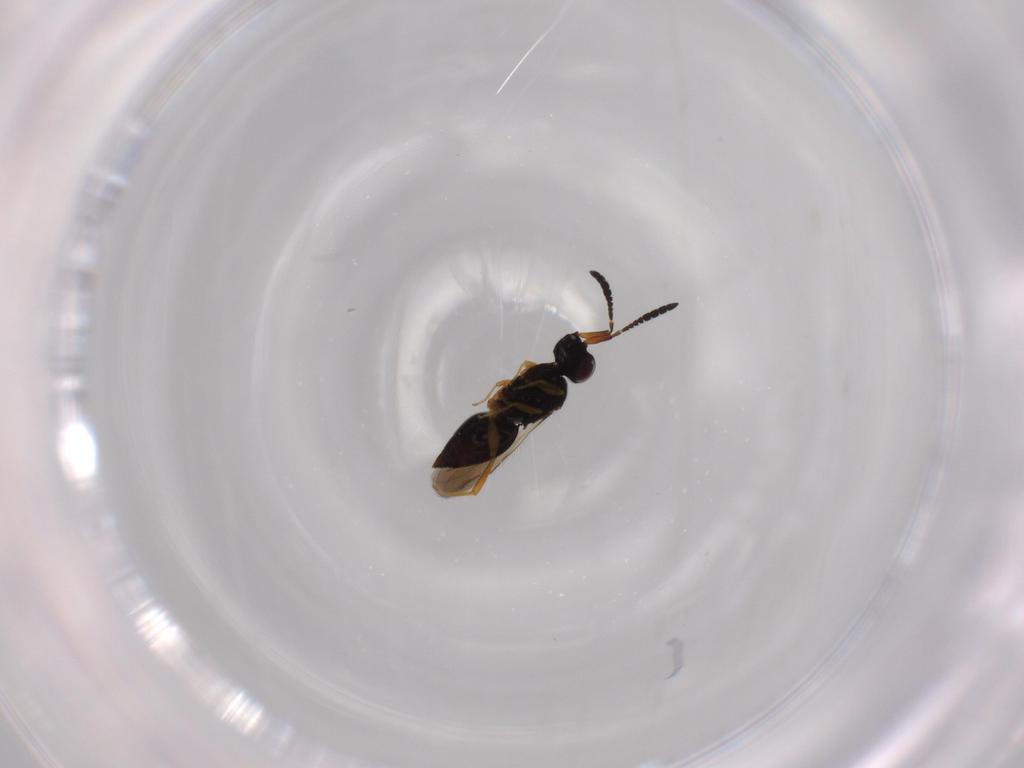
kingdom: Animalia
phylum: Arthropoda
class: Insecta
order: Hymenoptera
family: Ceraphronidae
